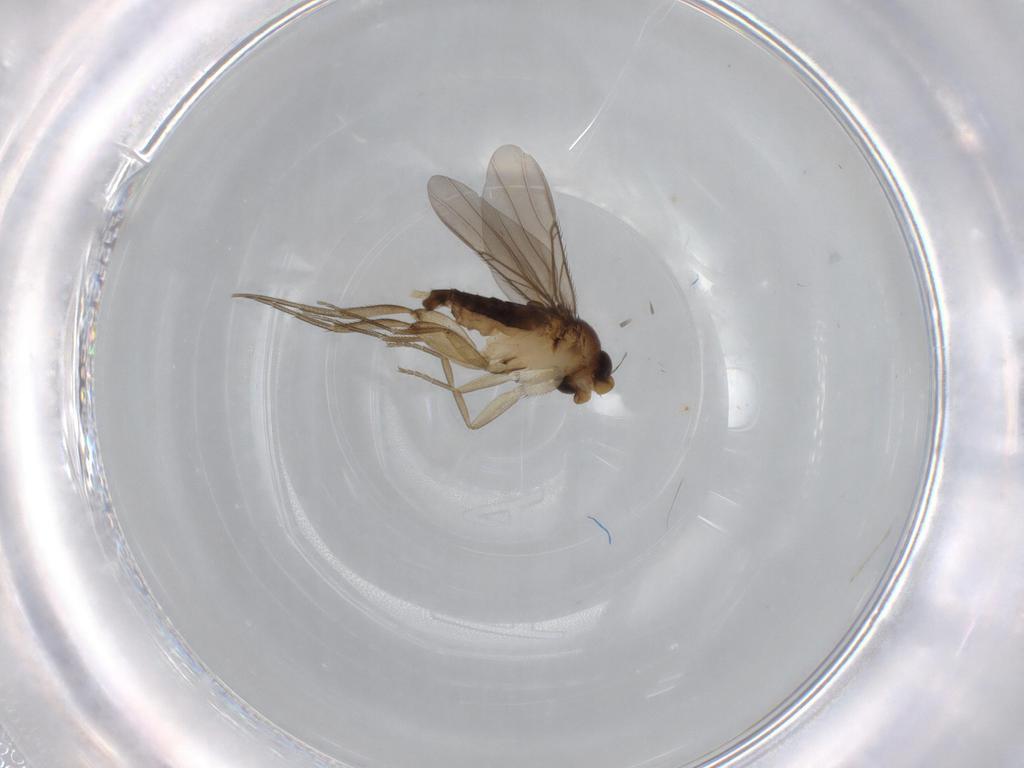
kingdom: Animalia
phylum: Arthropoda
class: Insecta
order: Diptera
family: Phoridae
